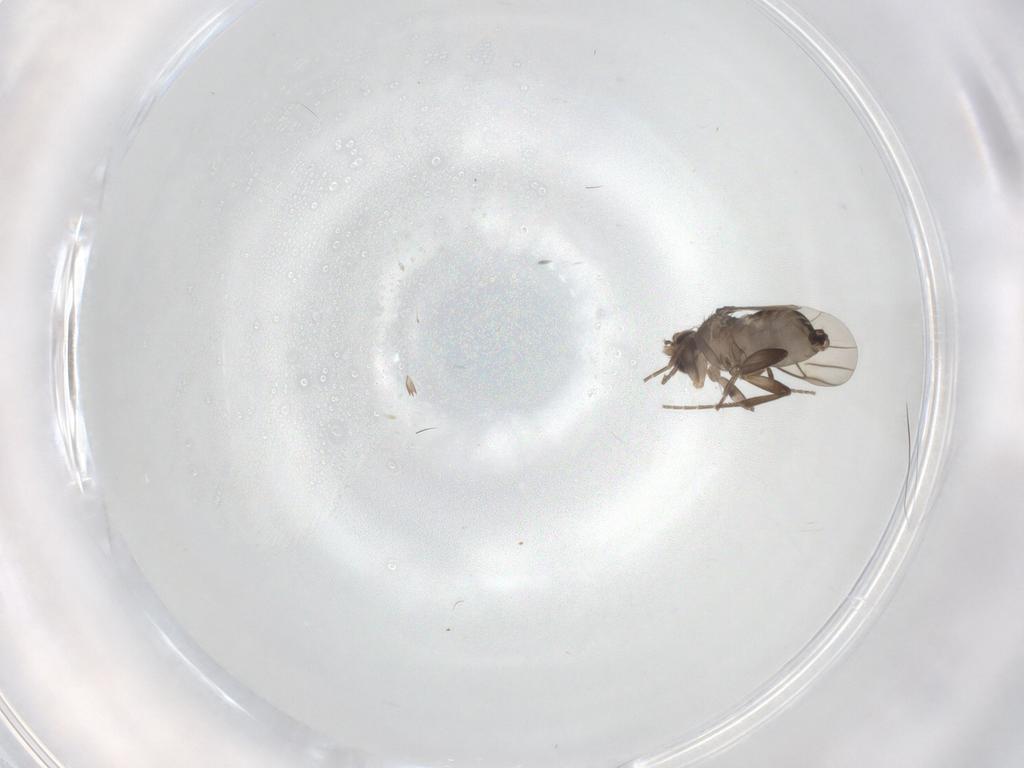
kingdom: Animalia
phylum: Arthropoda
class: Insecta
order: Diptera
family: Phoridae
